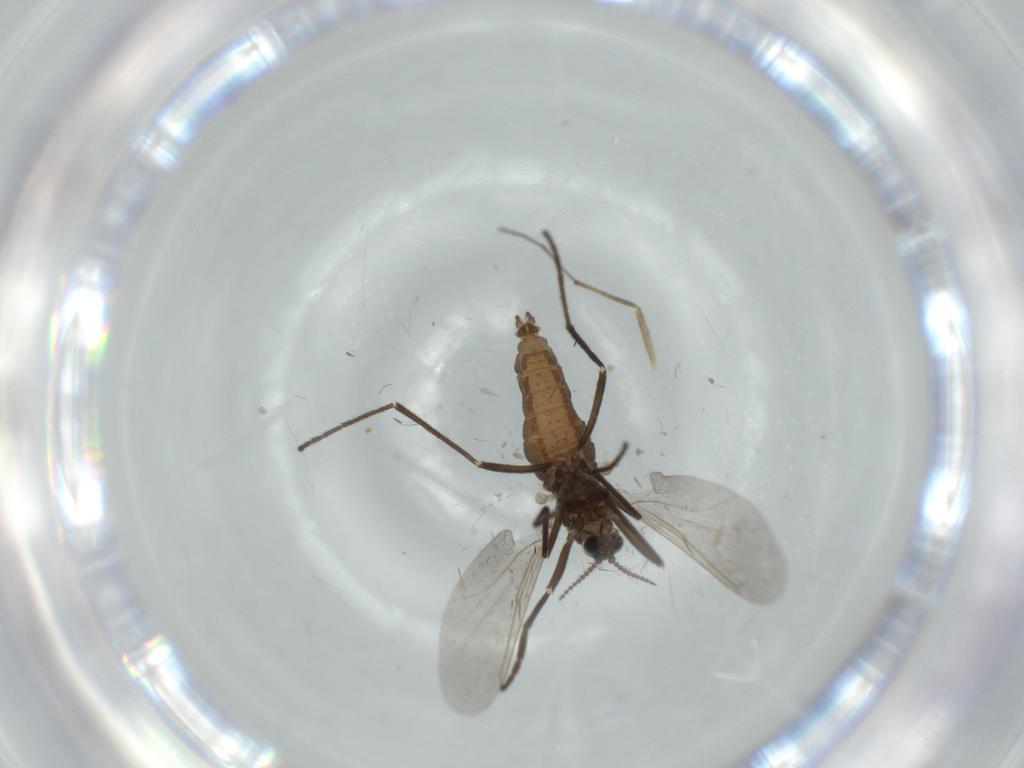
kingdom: Animalia
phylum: Arthropoda
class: Insecta
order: Diptera
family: Cecidomyiidae
